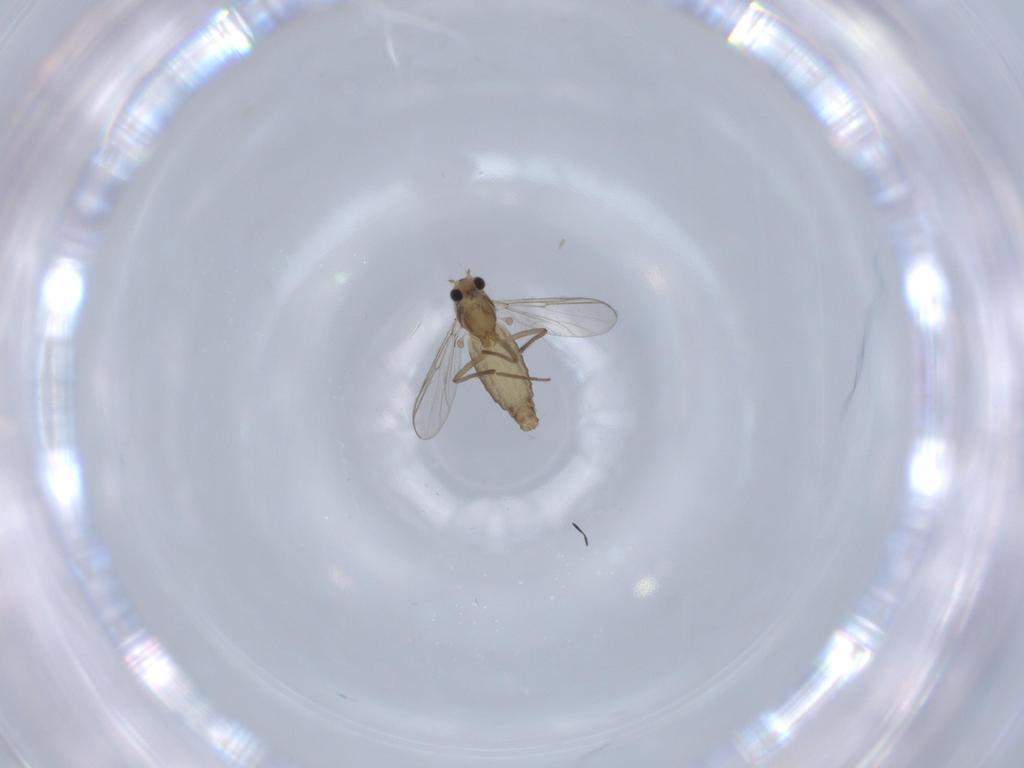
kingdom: Animalia
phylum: Arthropoda
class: Insecta
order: Diptera
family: Chironomidae
